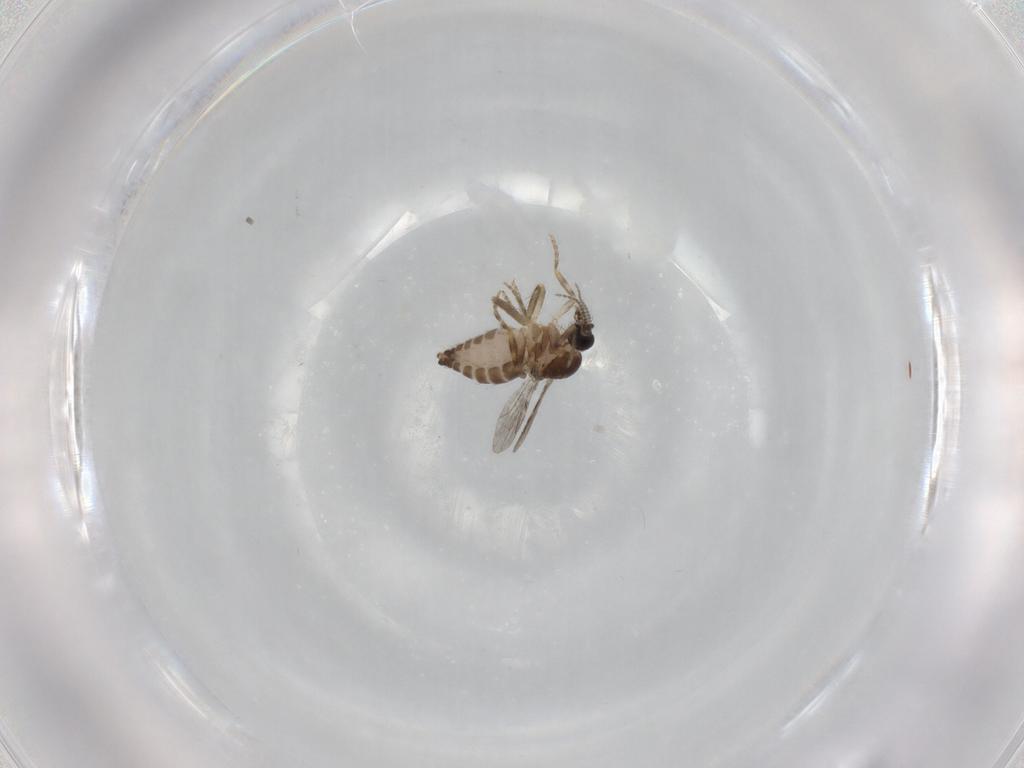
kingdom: Animalia
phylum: Arthropoda
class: Insecta
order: Diptera
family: Ceratopogonidae
